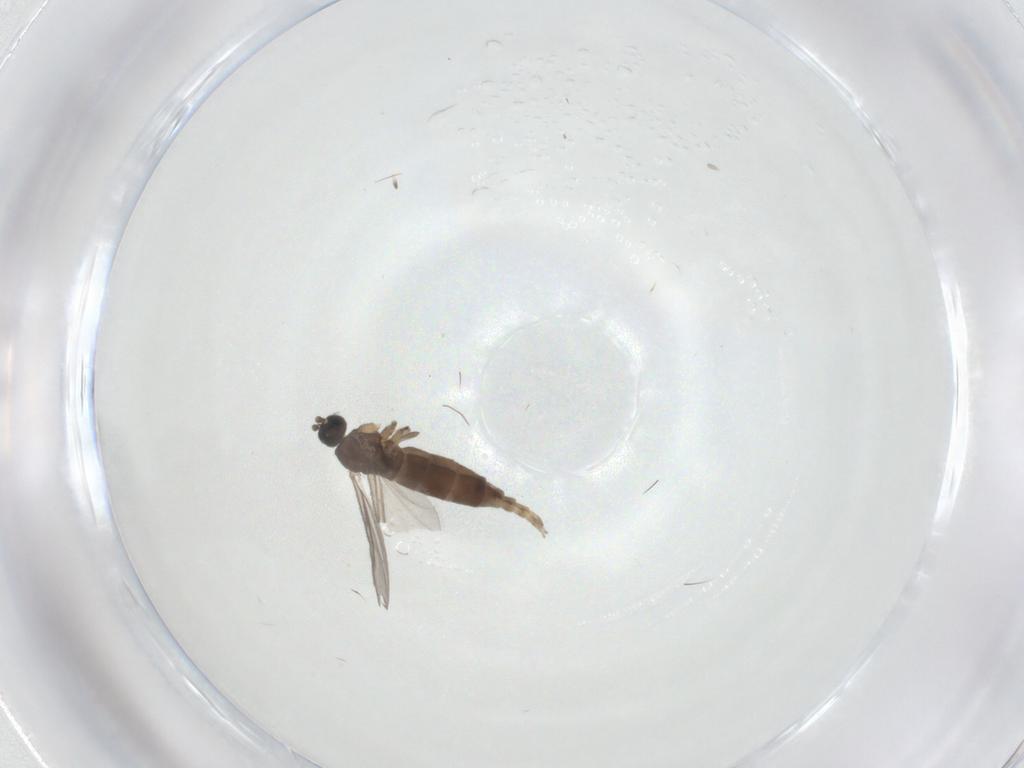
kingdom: Animalia
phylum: Arthropoda
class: Insecta
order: Diptera
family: Sciaridae
